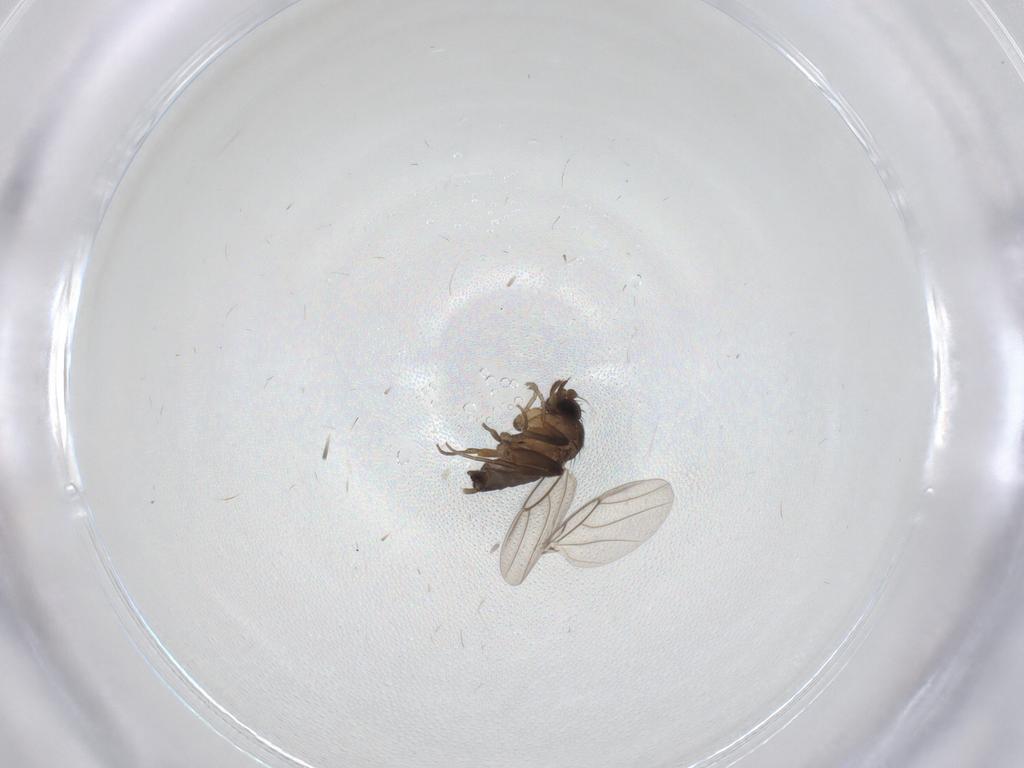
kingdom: Animalia
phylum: Arthropoda
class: Insecta
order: Diptera
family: Phoridae
